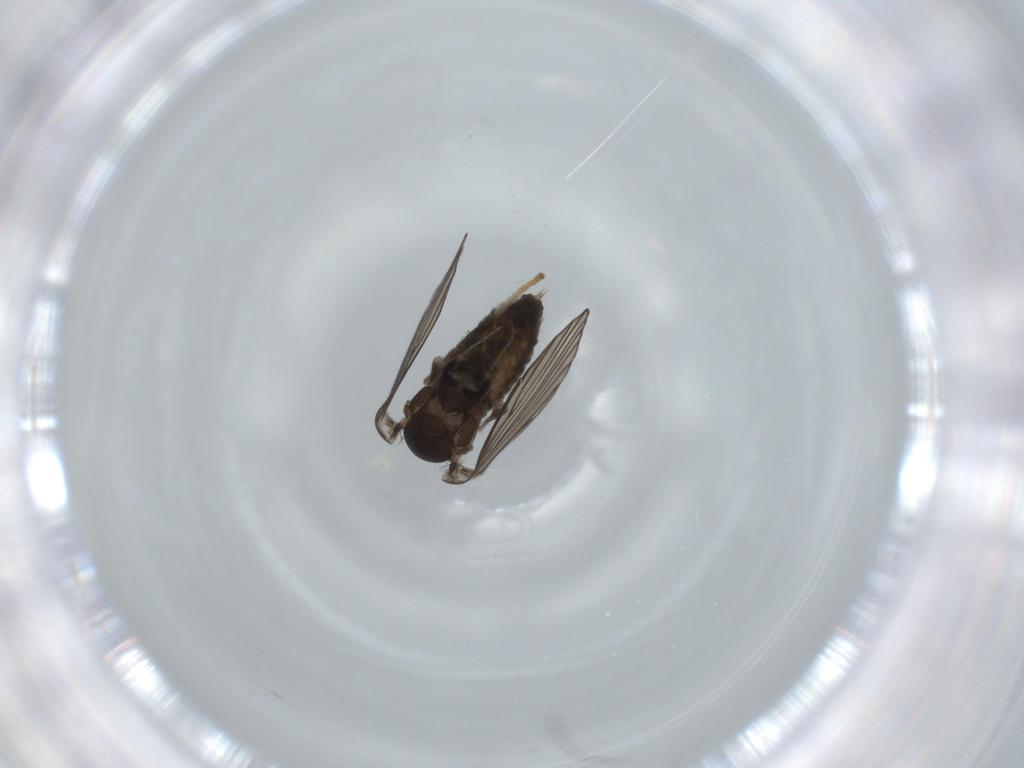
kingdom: Animalia
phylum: Arthropoda
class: Insecta
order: Diptera
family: Psychodidae
